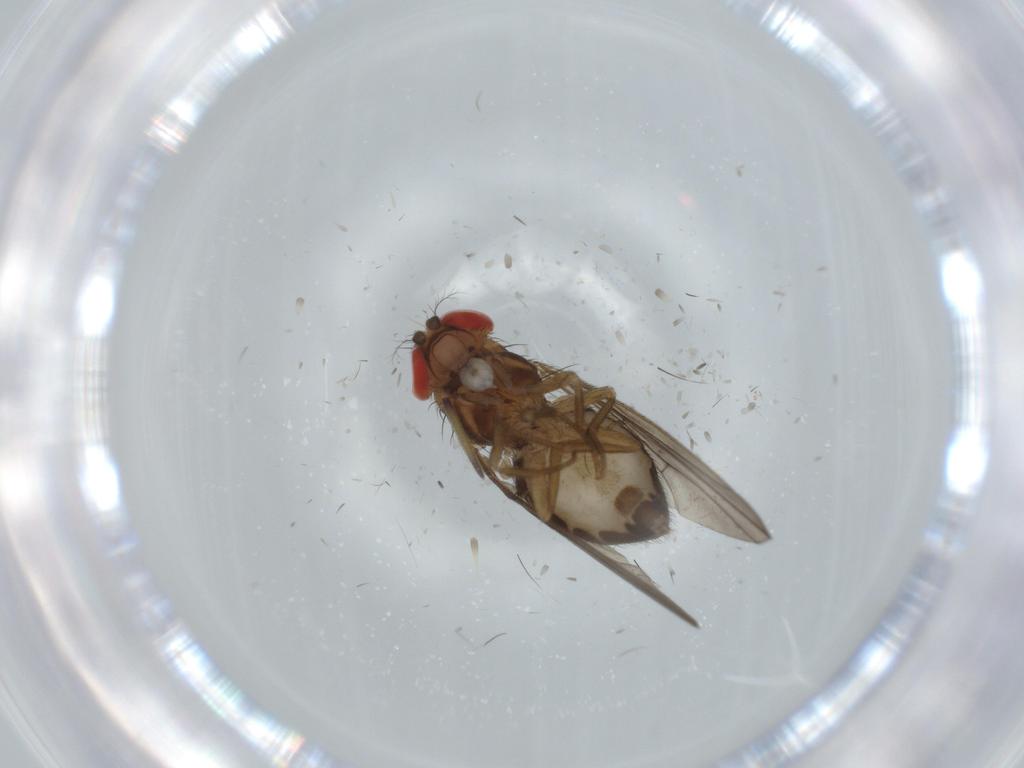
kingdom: Animalia
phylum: Arthropoda
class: Insecta
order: Diptera
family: Drosophilidae
